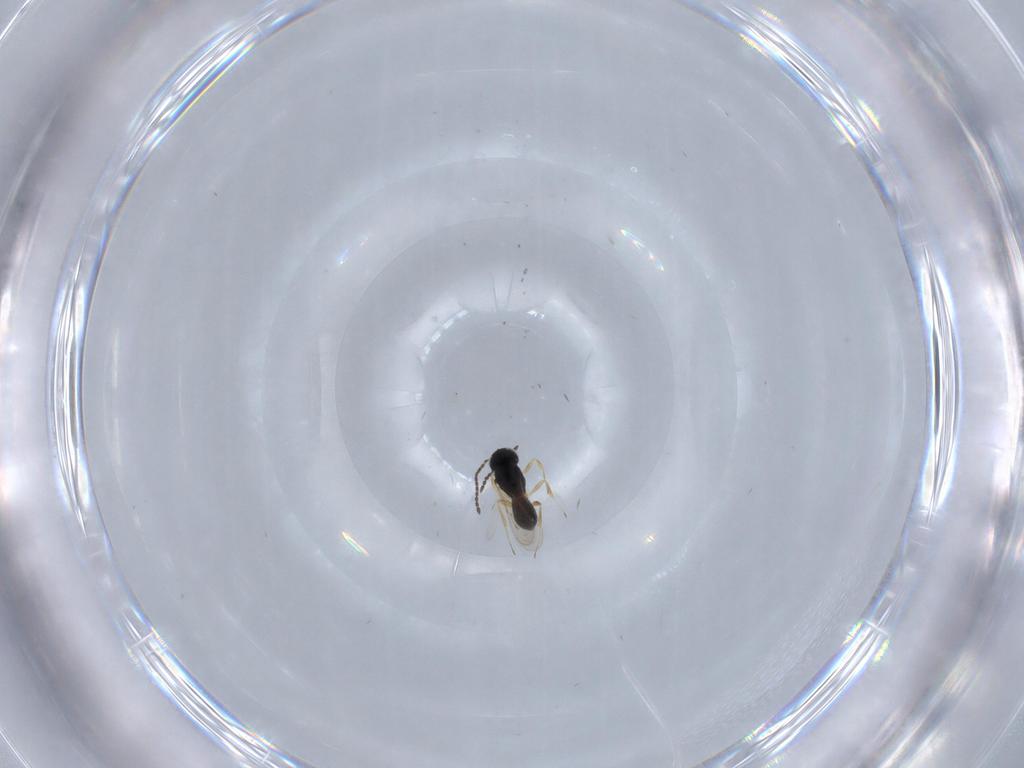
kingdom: Animalia
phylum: Arthropoda
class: Insecta
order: Hymenoptera
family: Scelionidae
